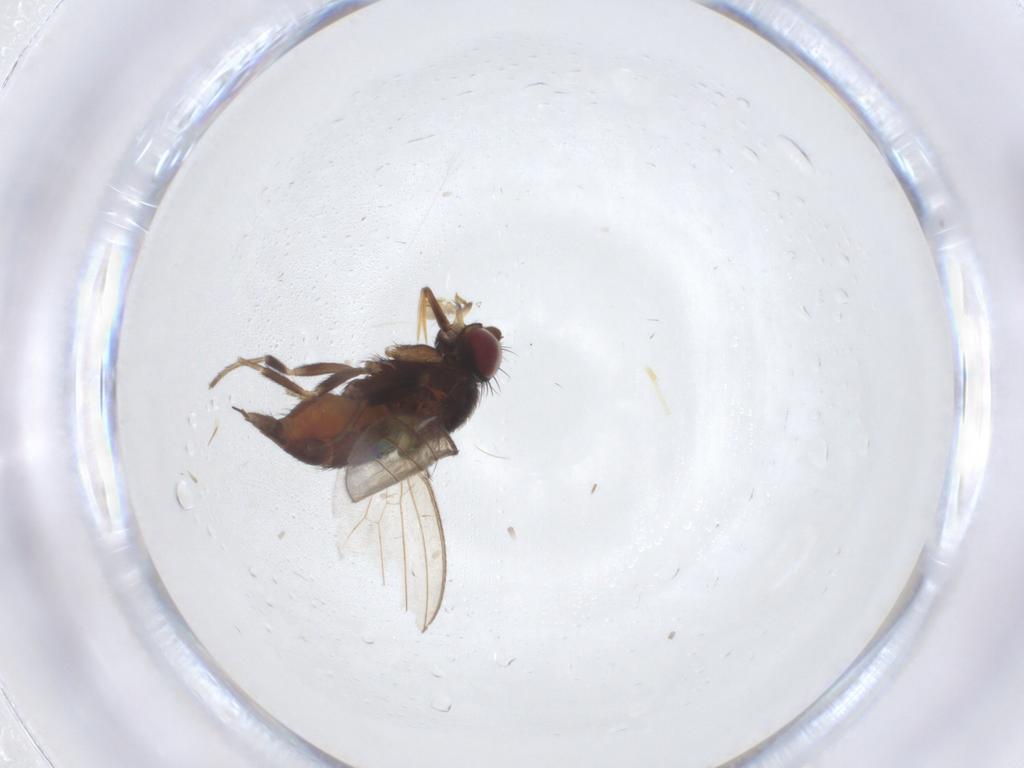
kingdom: Animalia
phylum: Arthropoda
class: Insecta
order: Diptera
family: Milichiidae
